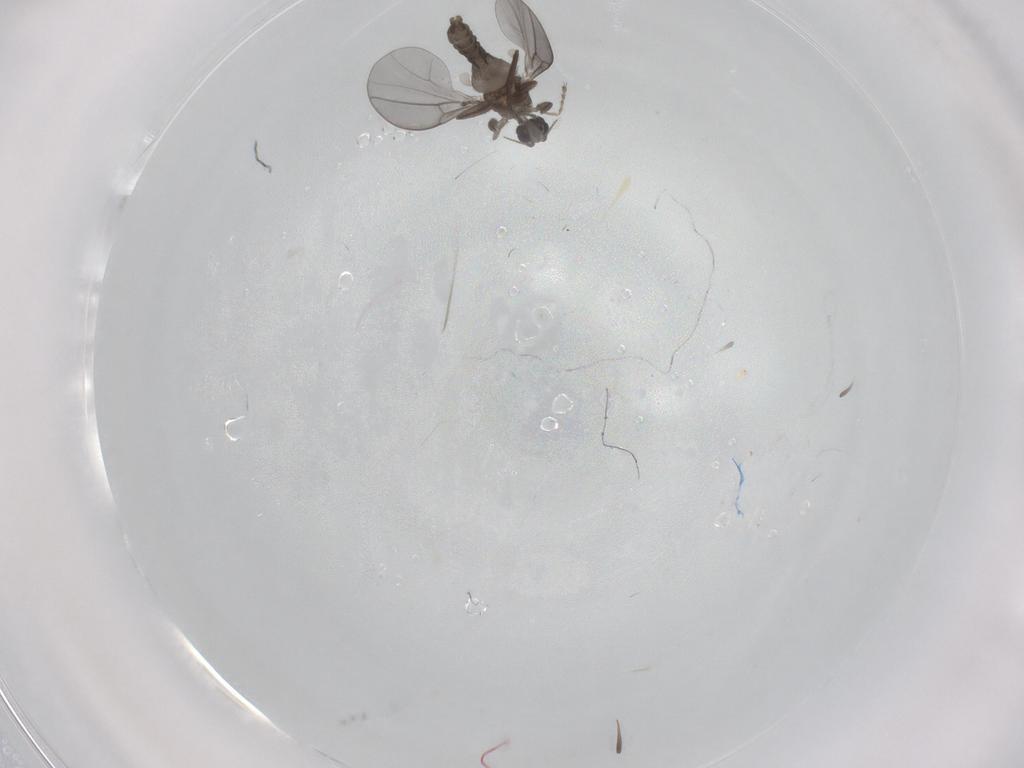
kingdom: Animalia
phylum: Arthropoda
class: Insecta
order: Diptera
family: Cecidomyiidae
